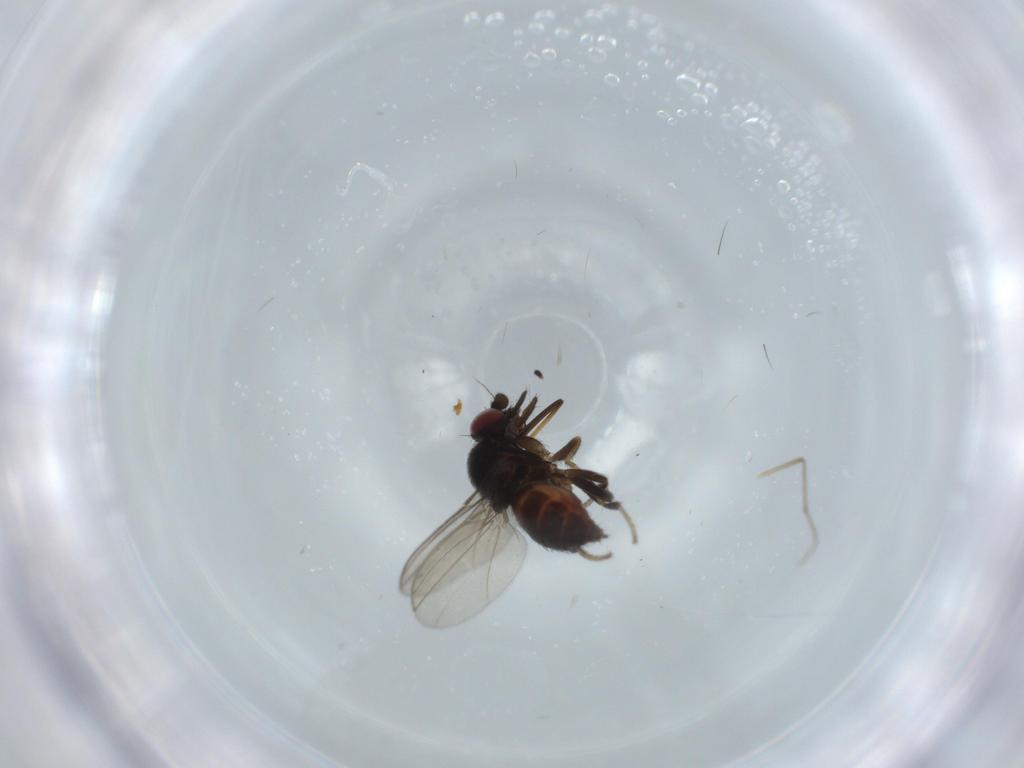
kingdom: Animalia
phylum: Arthropoda
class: Insecta
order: Diptera
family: Milichiidae
